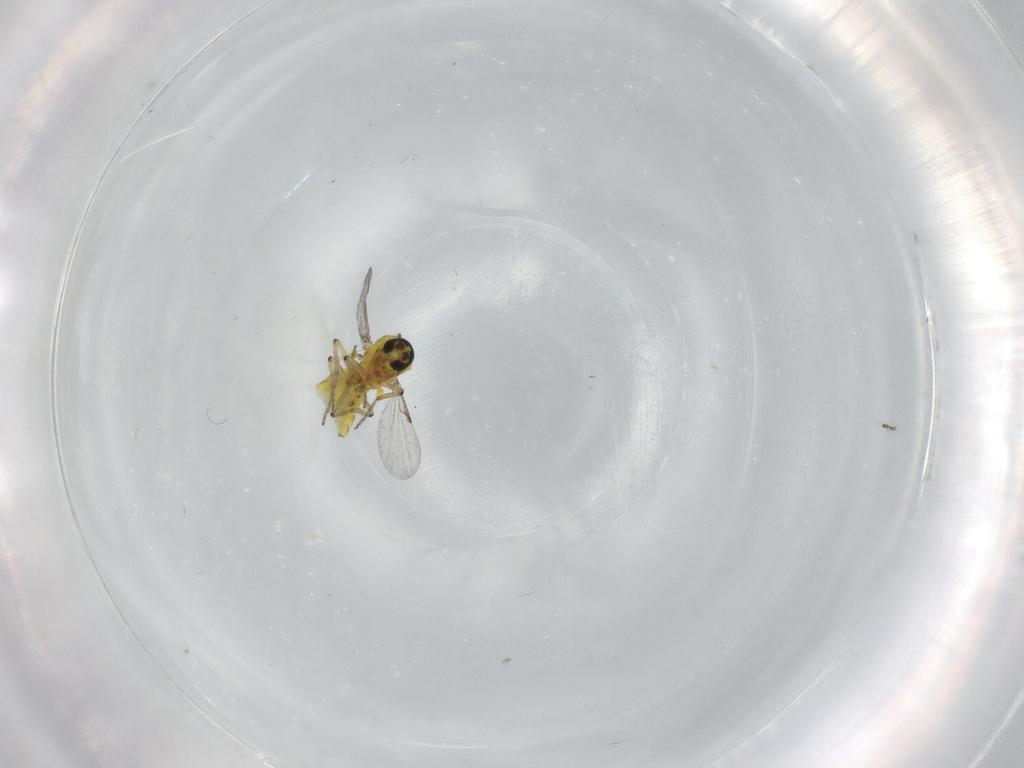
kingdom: Animalia
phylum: Arthropoda
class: Insecta
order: Diptera
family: Ceratopogonidae
